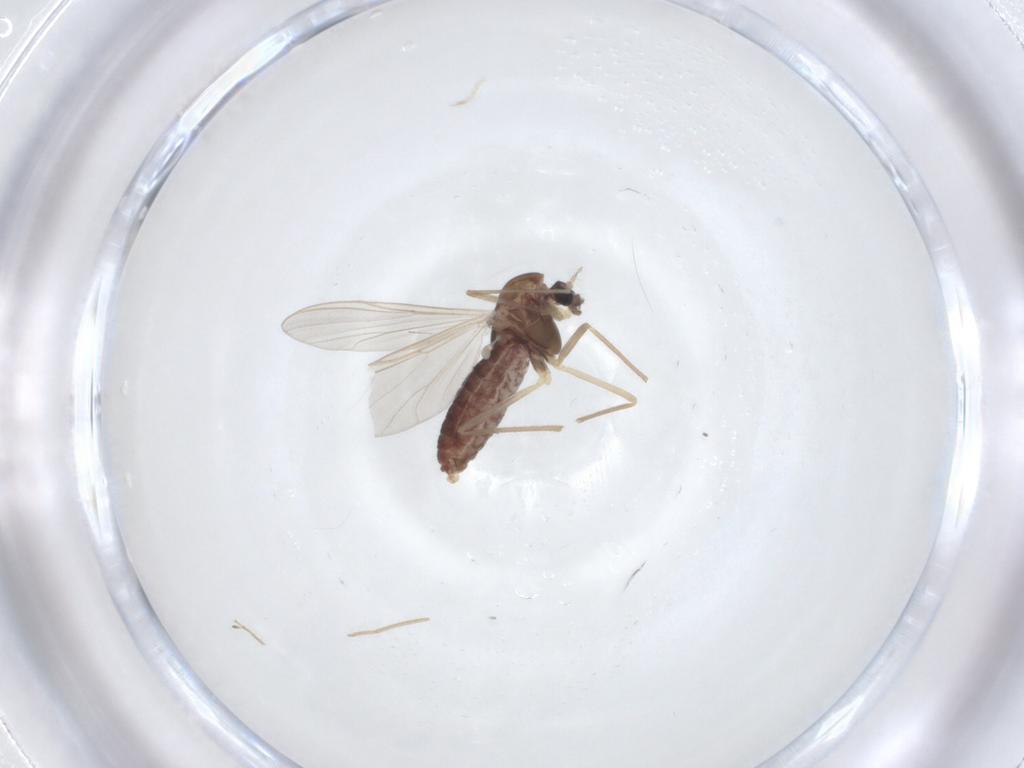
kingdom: Animalia
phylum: Arthropoda
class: Insecta
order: Diptera
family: Chironomidae
